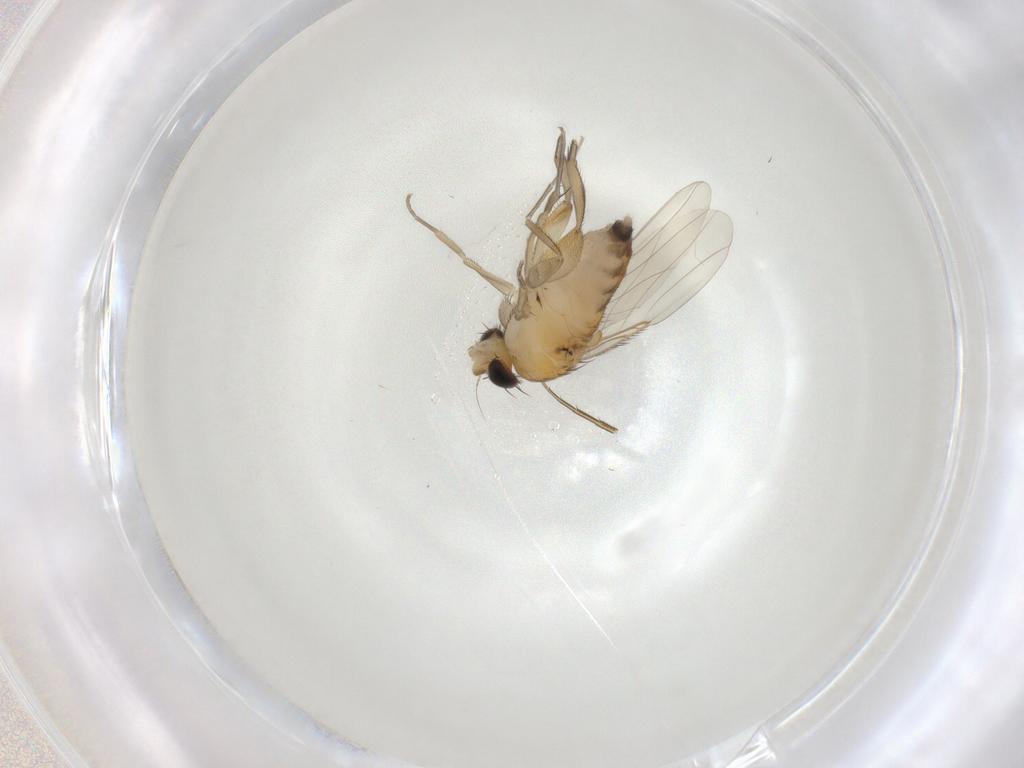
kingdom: Animalia
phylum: Arthropoda
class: Insecta
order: Diptera
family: Phoridae
